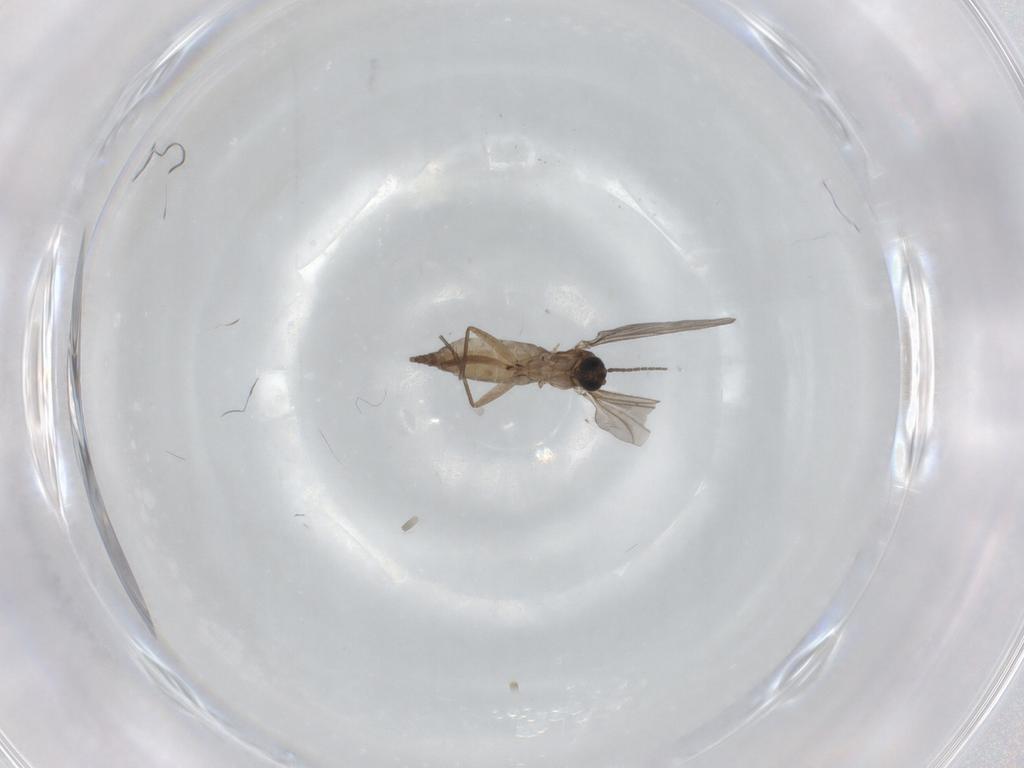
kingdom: Animalia
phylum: Arthropoda
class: Insecta
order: Diptera
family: Sciaridae
